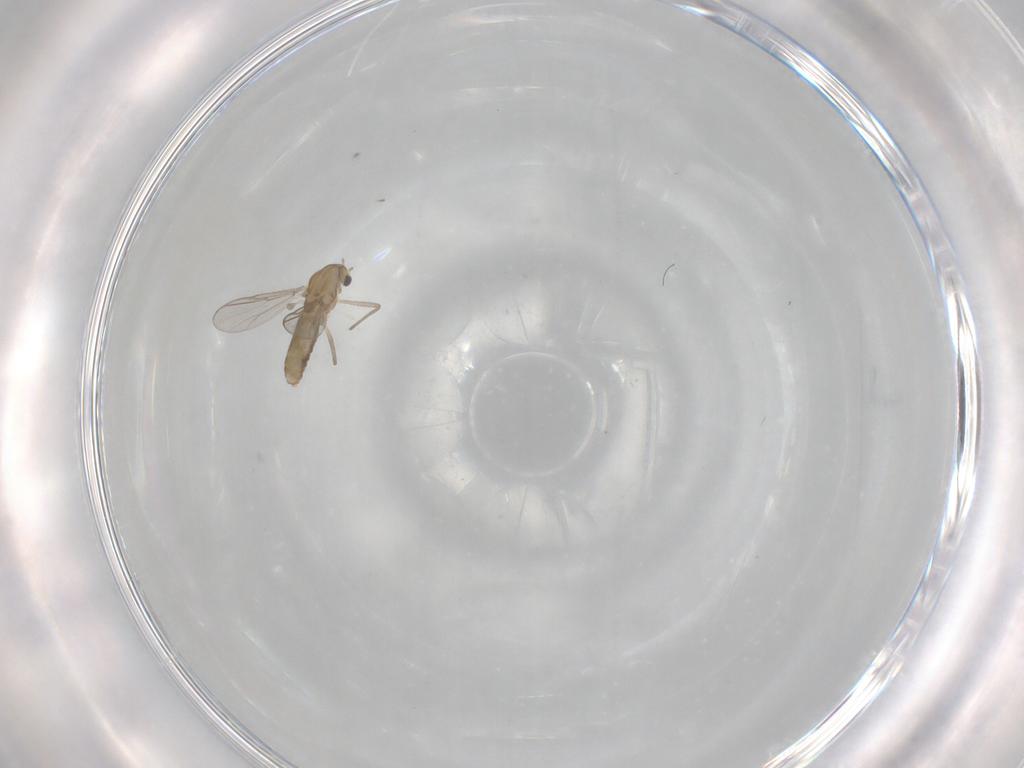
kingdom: Animalia
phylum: Arthropoda
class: Insecta
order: Diptera
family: Chironomidae
